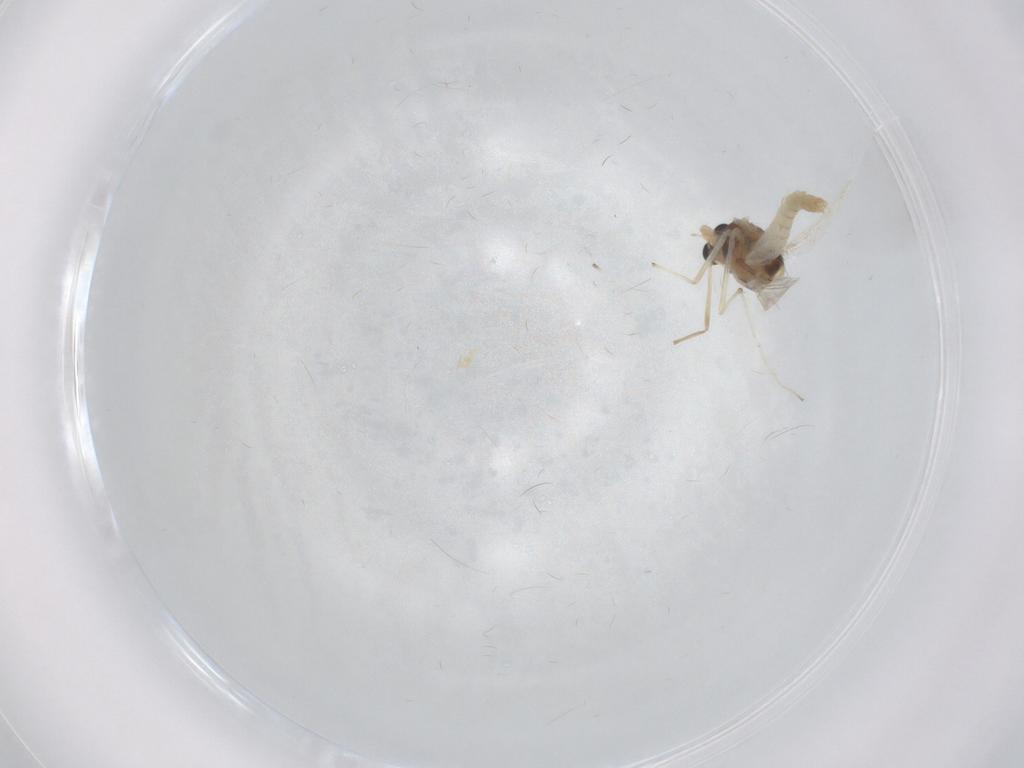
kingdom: Animalia
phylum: Arthropoda
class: Insecta
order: Diptera
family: Chironomidae
